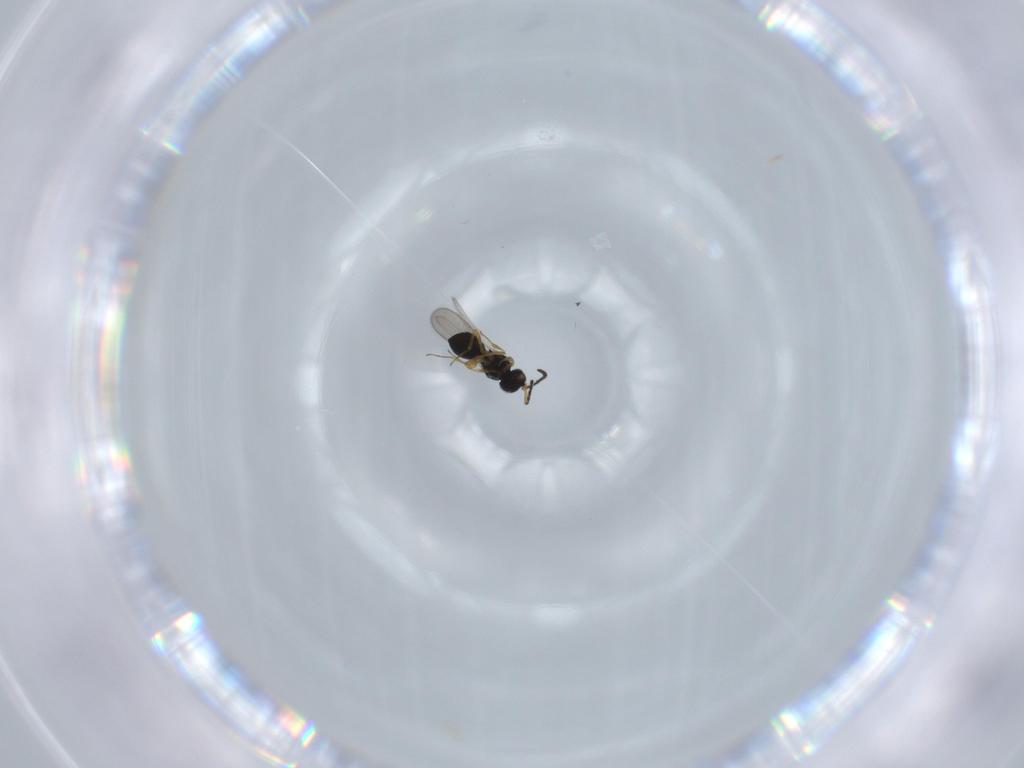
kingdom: Animalia
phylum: Arthropoda
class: Insecta
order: Hymenoptera
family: Scelionidae
